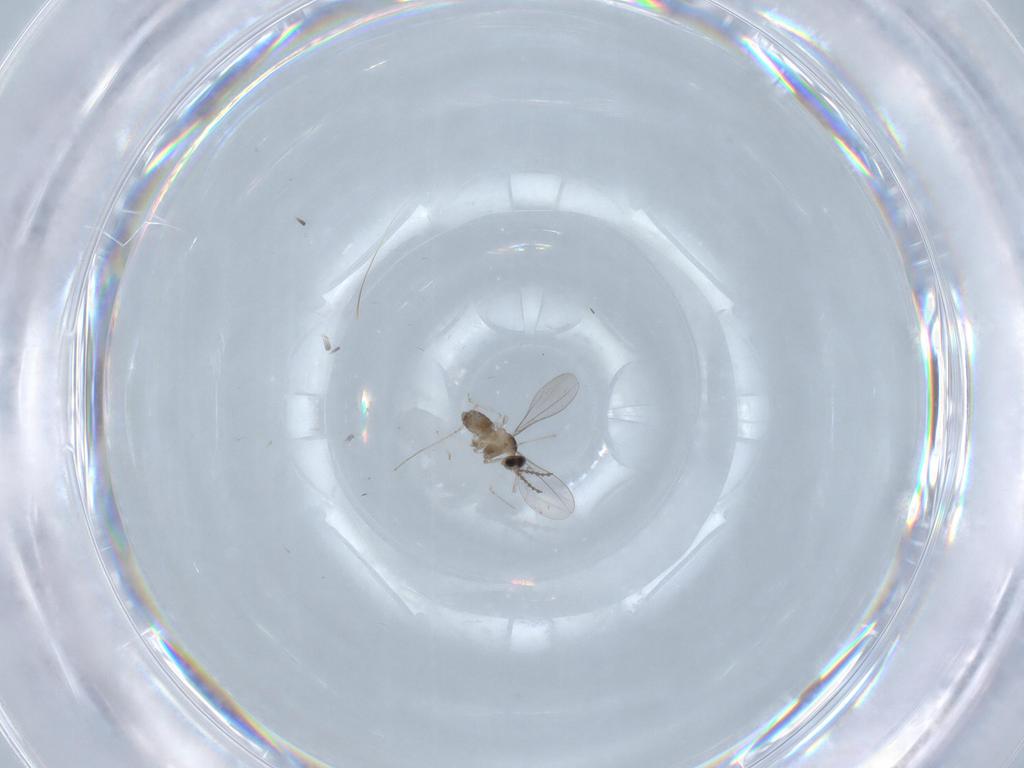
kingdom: Animalia
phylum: Arthropoda
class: Insecta
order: Diptera
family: Cecidomyiidae
